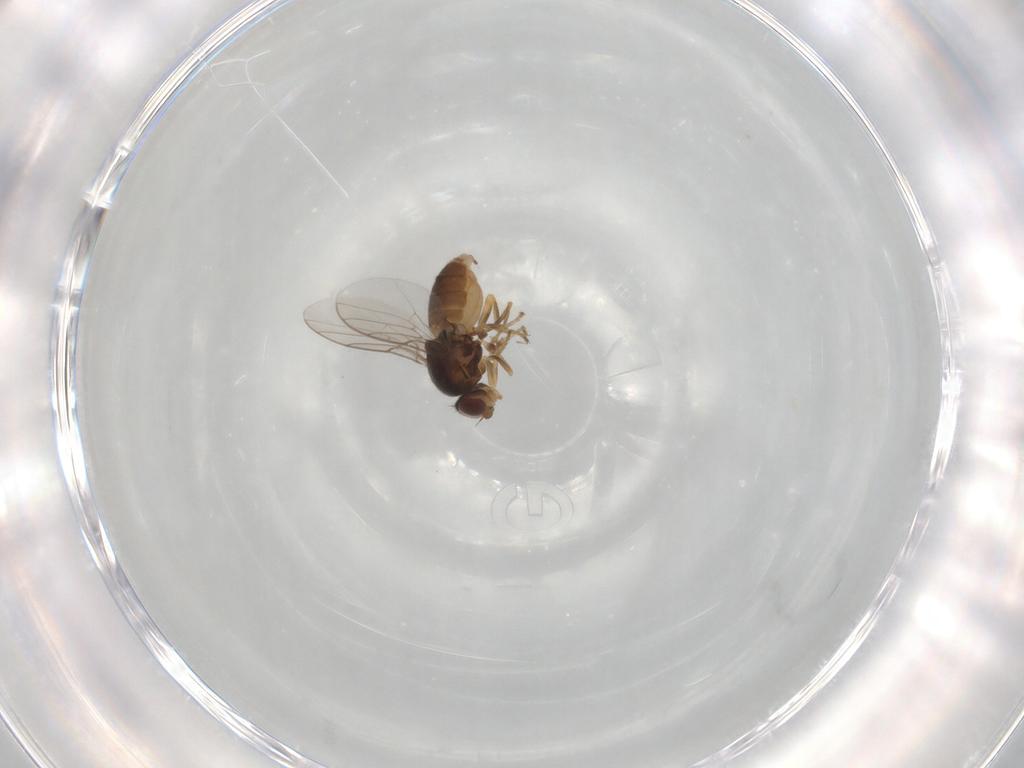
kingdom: Animalia
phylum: Arthropoda
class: Insecta
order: Diptera
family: Chloropidae
